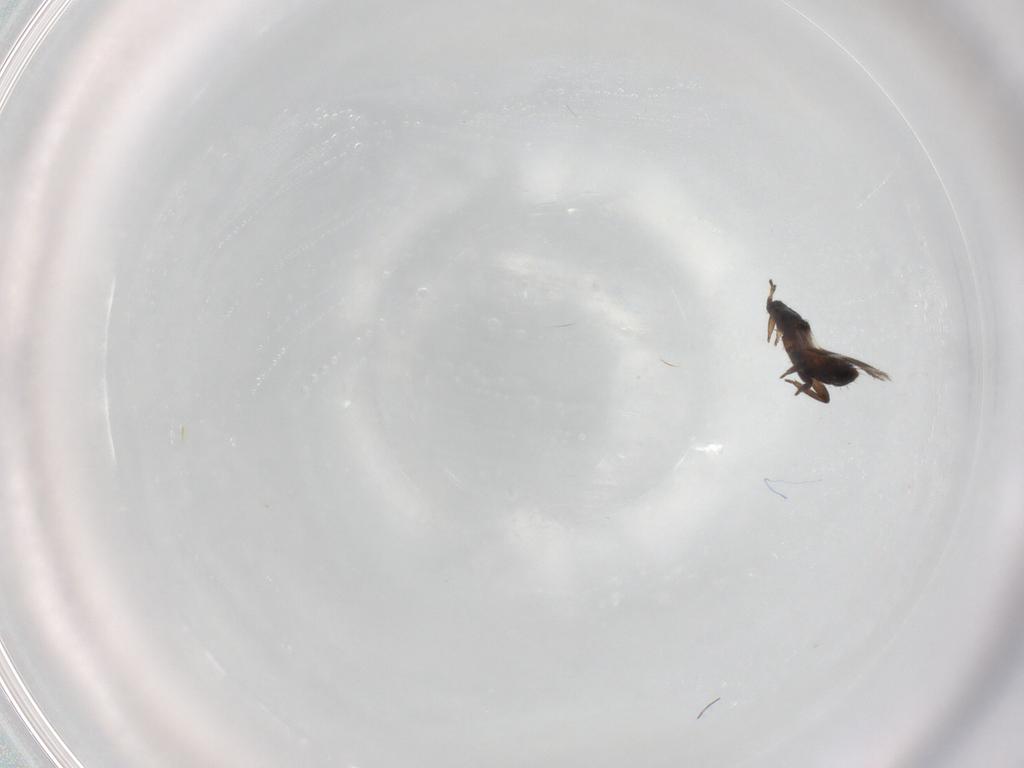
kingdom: Animalia
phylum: Arthropoda
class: Insecta
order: Thysanoptera
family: Aeolothripidae
